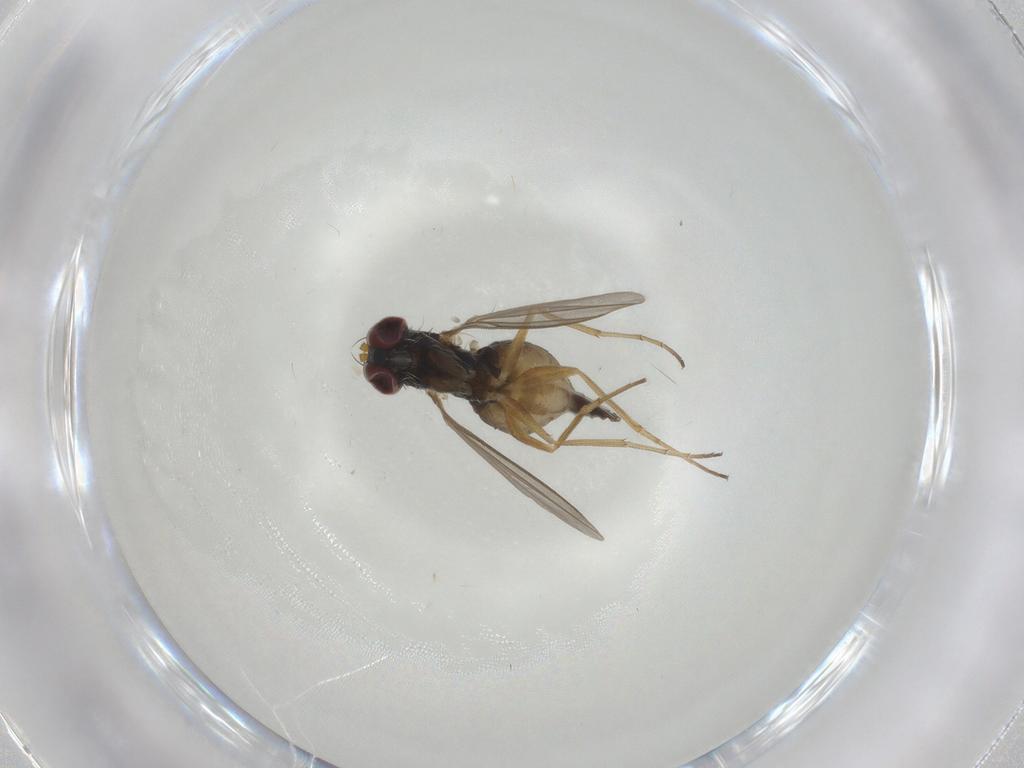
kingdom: Animalia
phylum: Arthropoda
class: Insecta
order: Diptera
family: Dolichopodidae
